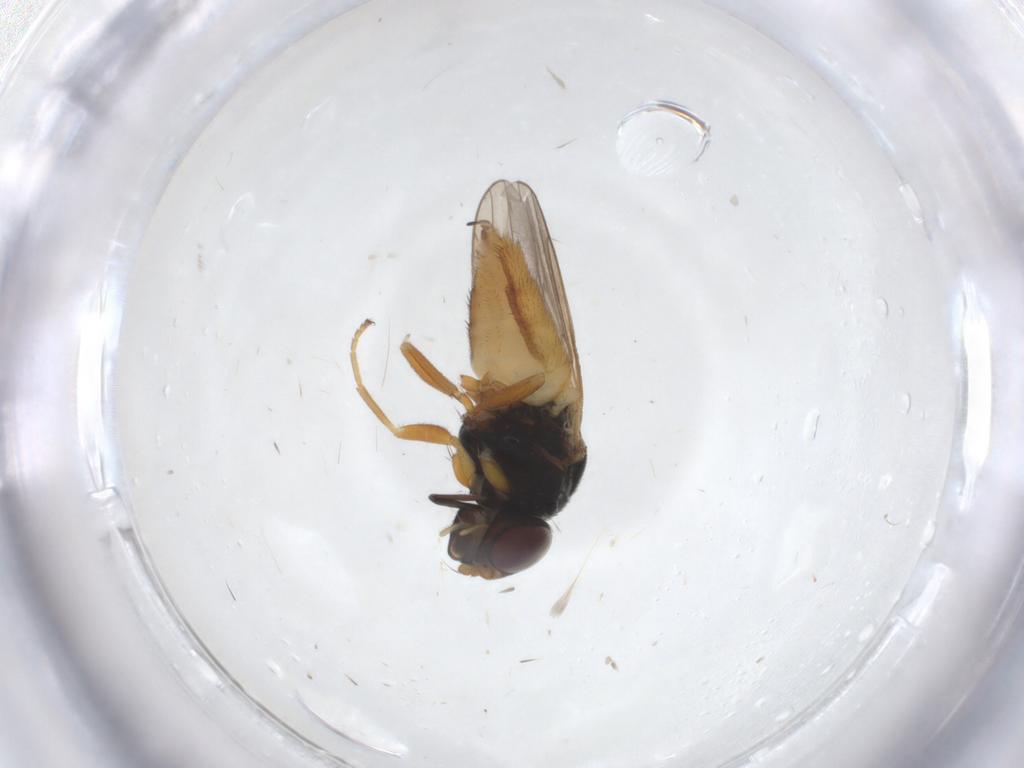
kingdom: Animalia
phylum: Arthropoda
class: Insecta
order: Diptera
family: Chloropidae
